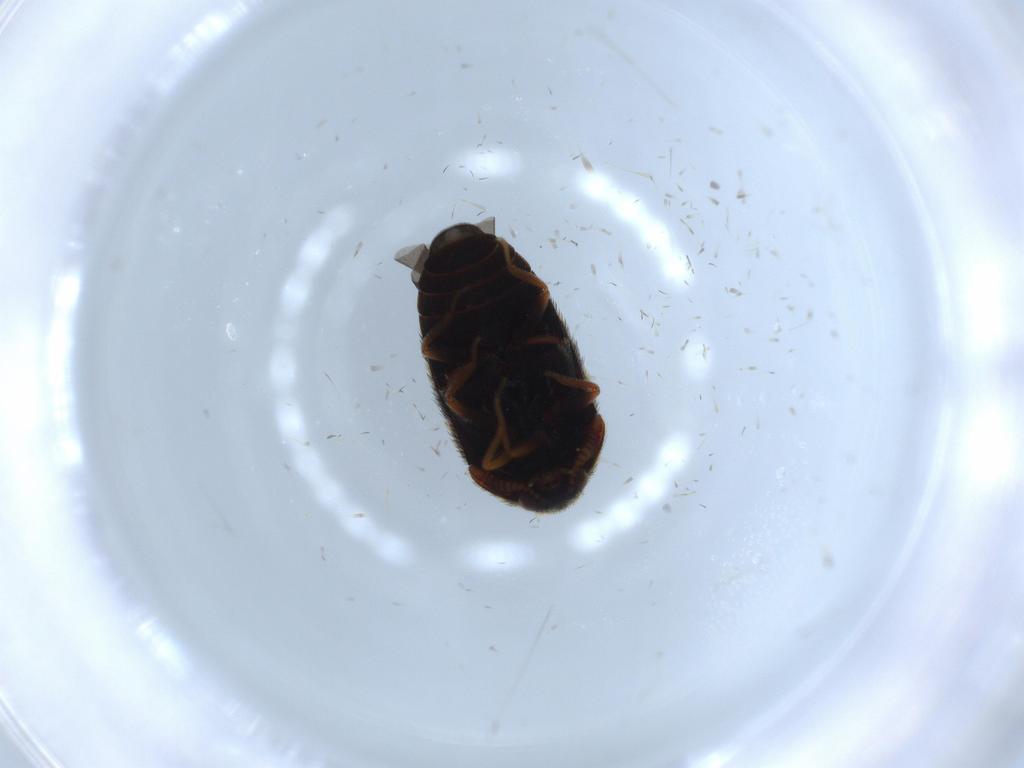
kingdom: Animalia
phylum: Arthropoda
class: Insecta
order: Coleoptera
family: Dermestidae
